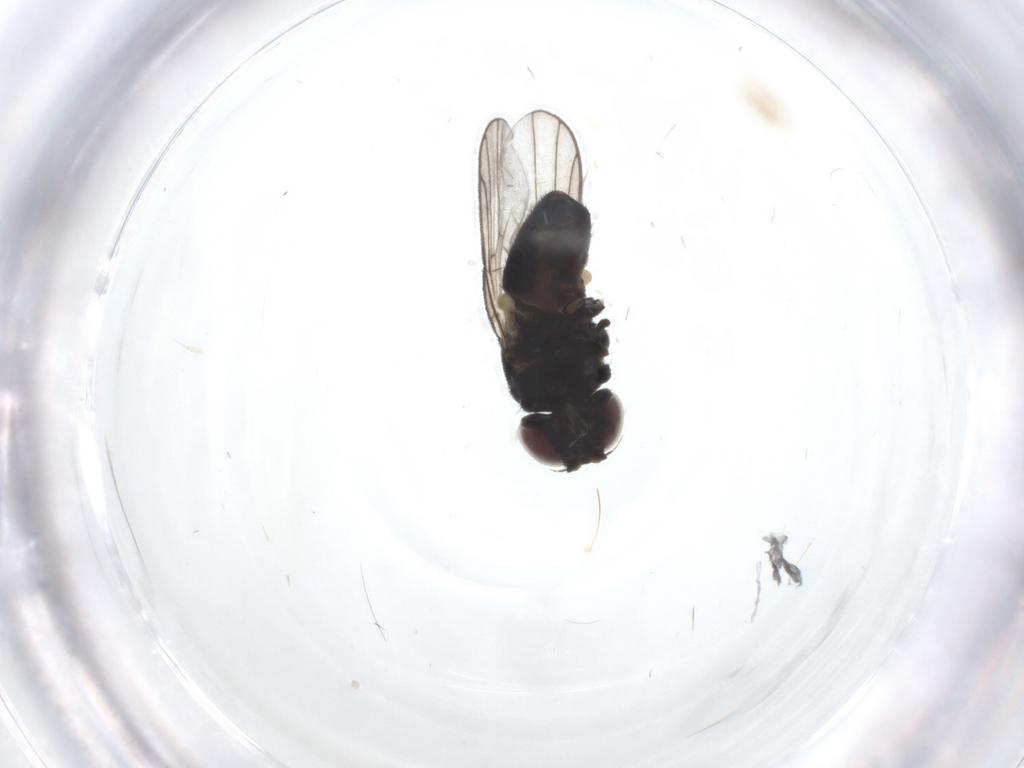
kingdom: Animalia
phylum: Arthropoda
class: Insecta
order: Diptera
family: Chloropidae
